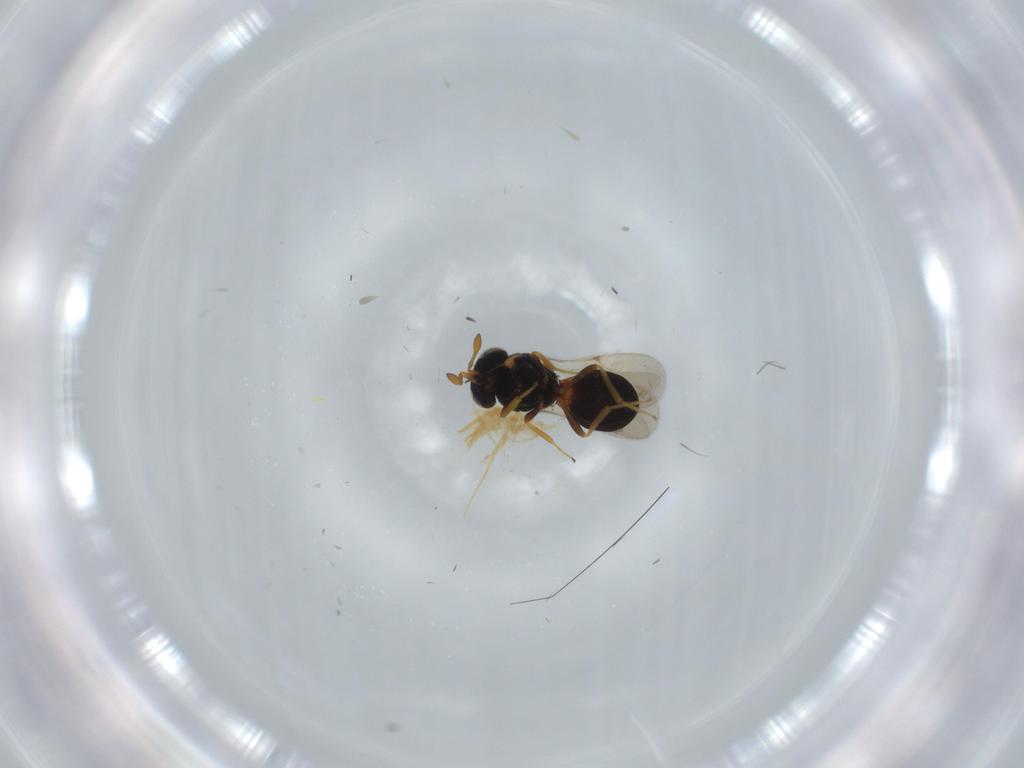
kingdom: Animalia
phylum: Arthropoda
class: Insecta
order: Hymenoptera
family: Scelionidae
